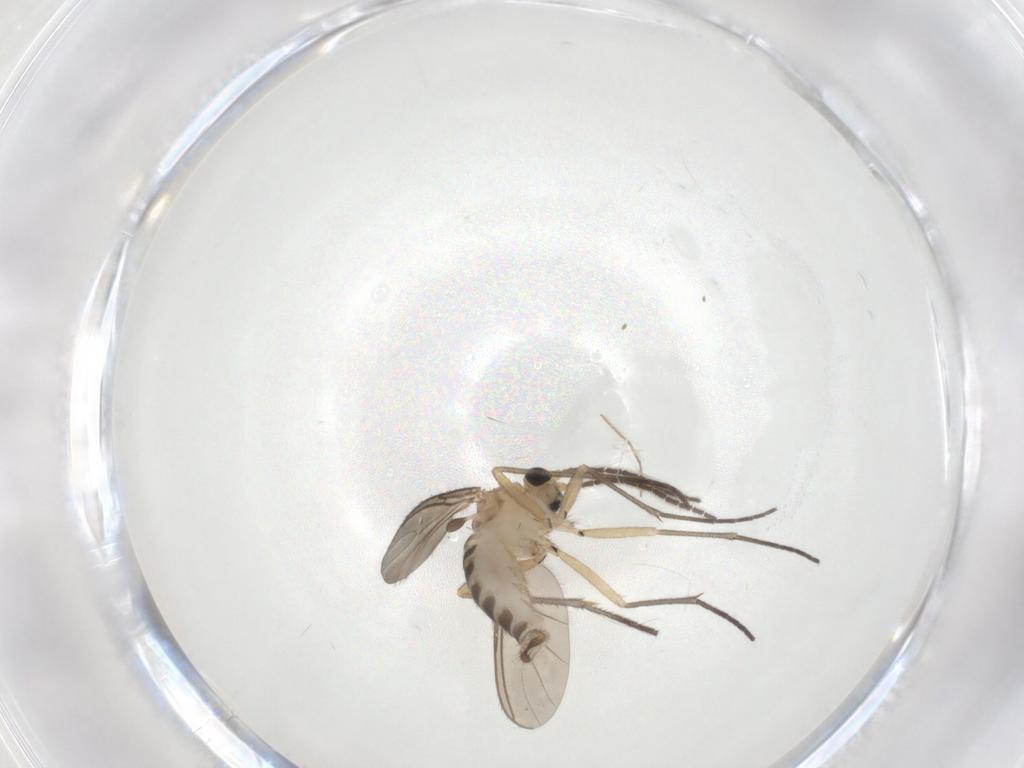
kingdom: Animalia
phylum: Arthropoda
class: Insecta
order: Diptera
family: Sciaridae
